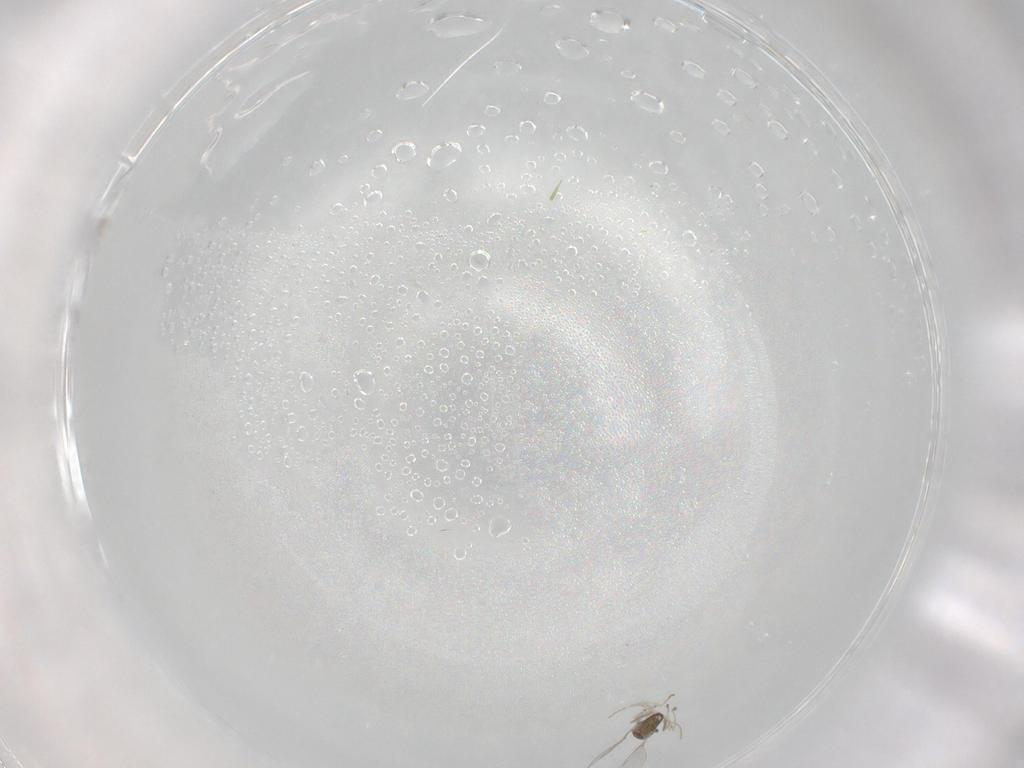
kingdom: Animalia
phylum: Arthropoda
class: Insecta
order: Diptera
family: Cecidomyiidae
